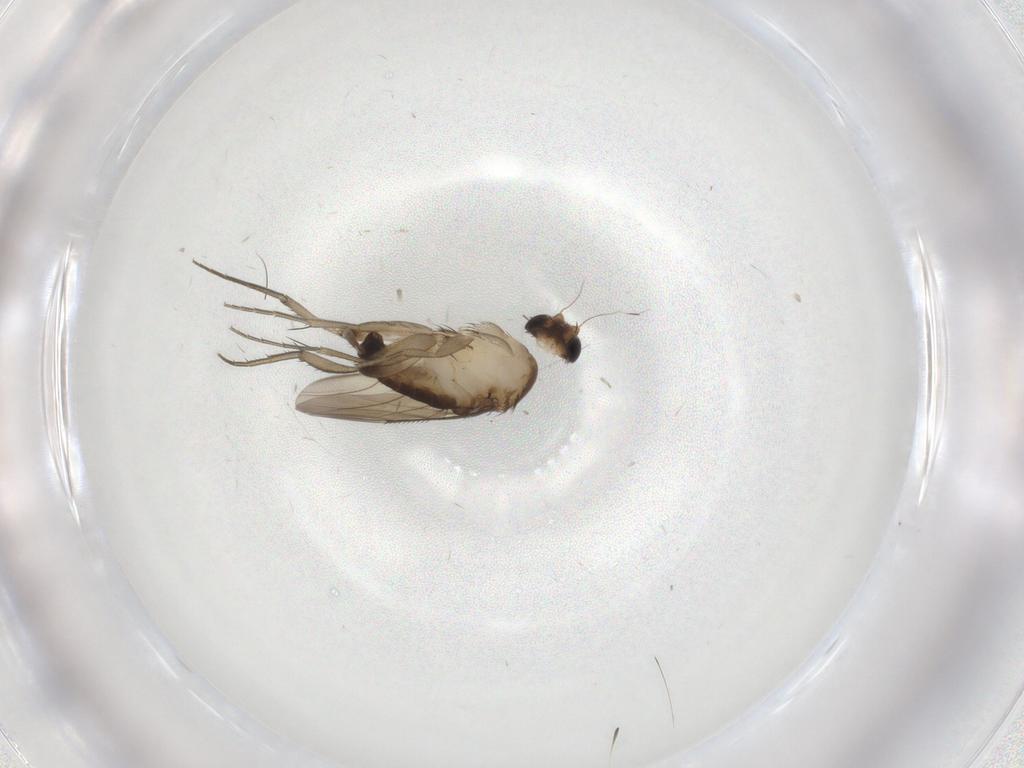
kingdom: Animalia
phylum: Arthropoda
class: Insecta
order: Diptera
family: Phoridae
